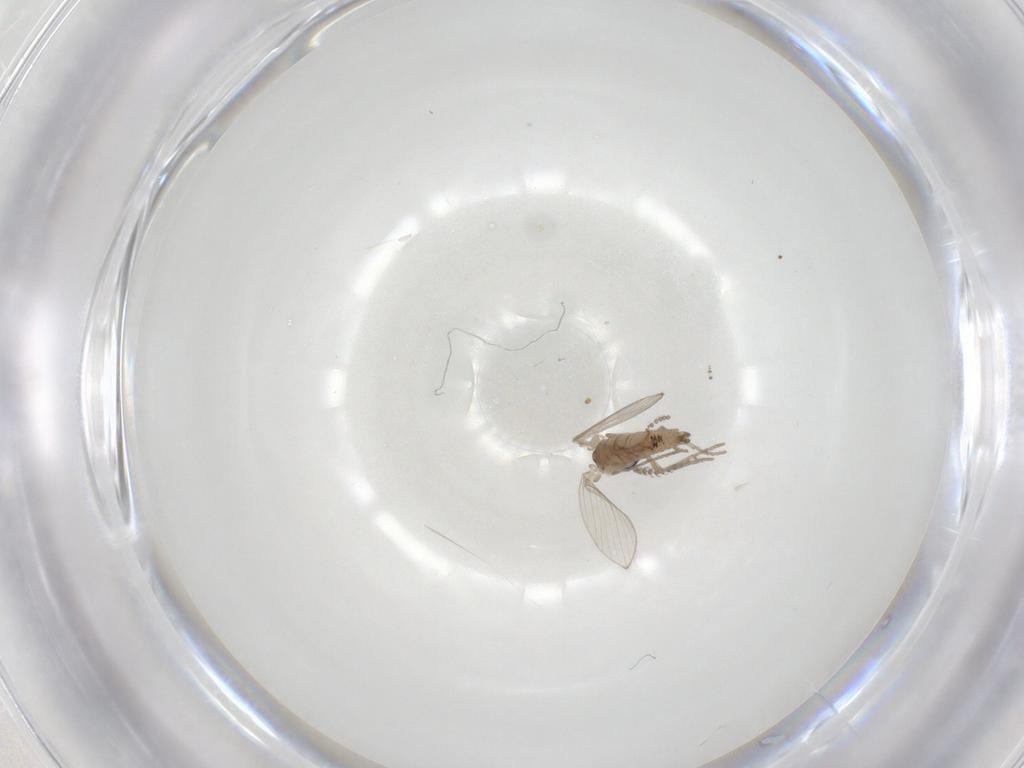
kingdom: Animalia
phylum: Arthropoda
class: Insecta
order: Diptera
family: Psychodidae
